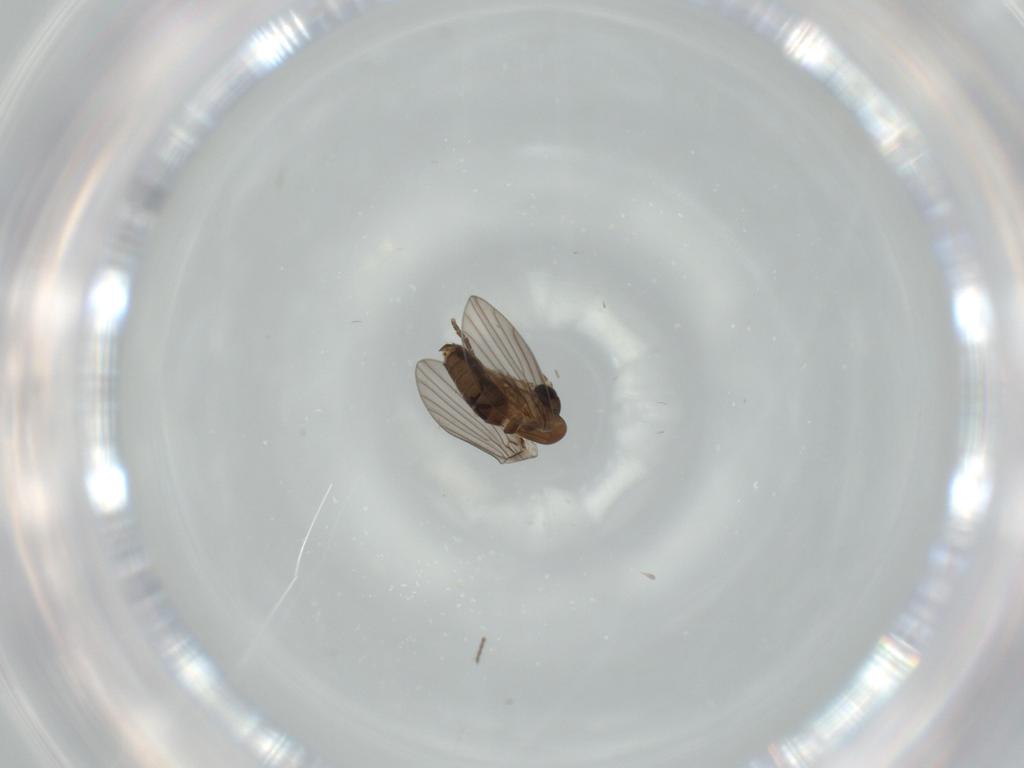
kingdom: Animalia
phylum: Arthropoda
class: Insecta
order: Diptera
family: Psychodidae
